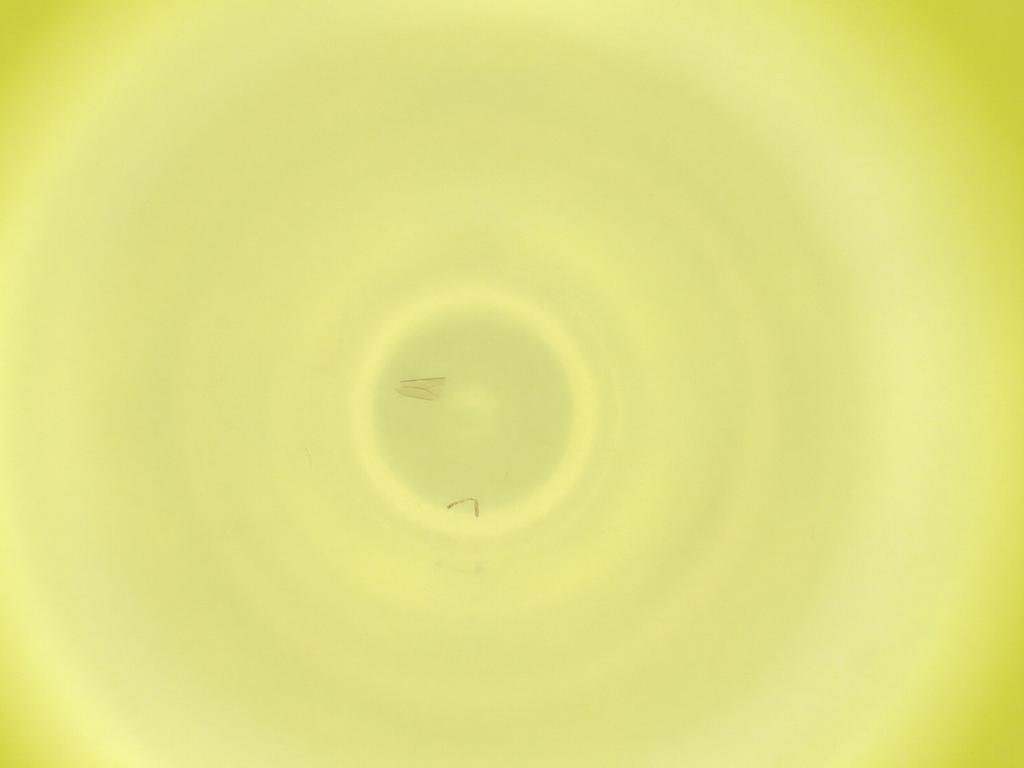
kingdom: Animalia
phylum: Arthropoda
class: Insecta
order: Diptera
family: Cecidomyiidae
